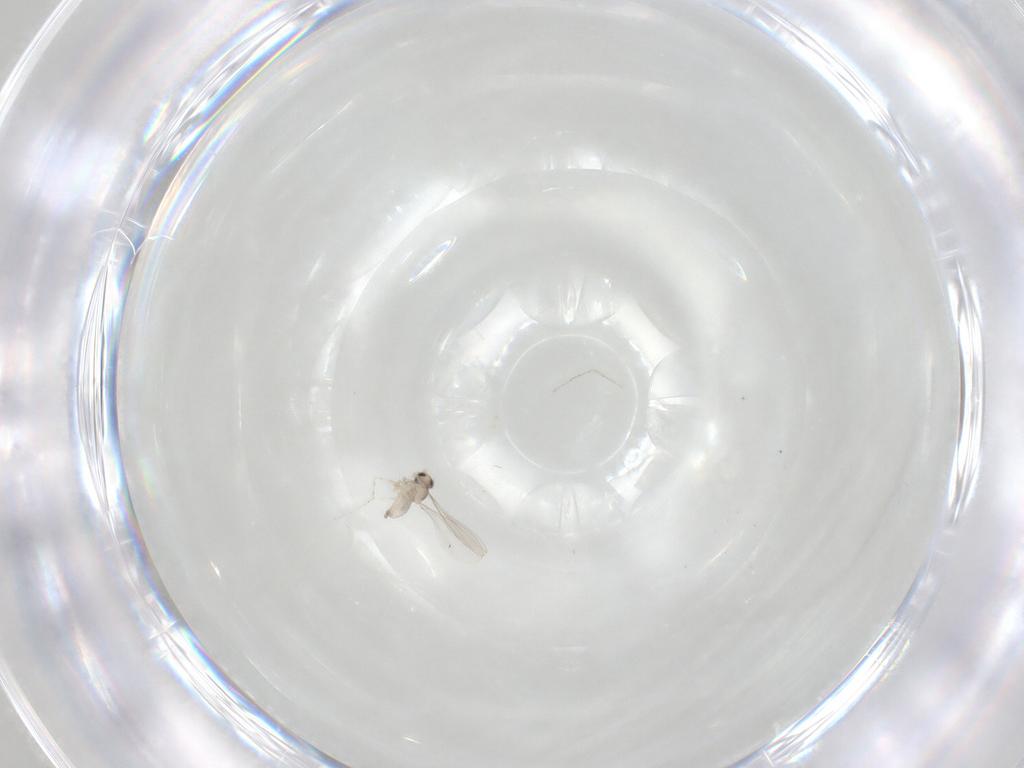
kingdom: Animalia
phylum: Arthropoda
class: Insecta
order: Diptera
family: Cecidomyiidae
